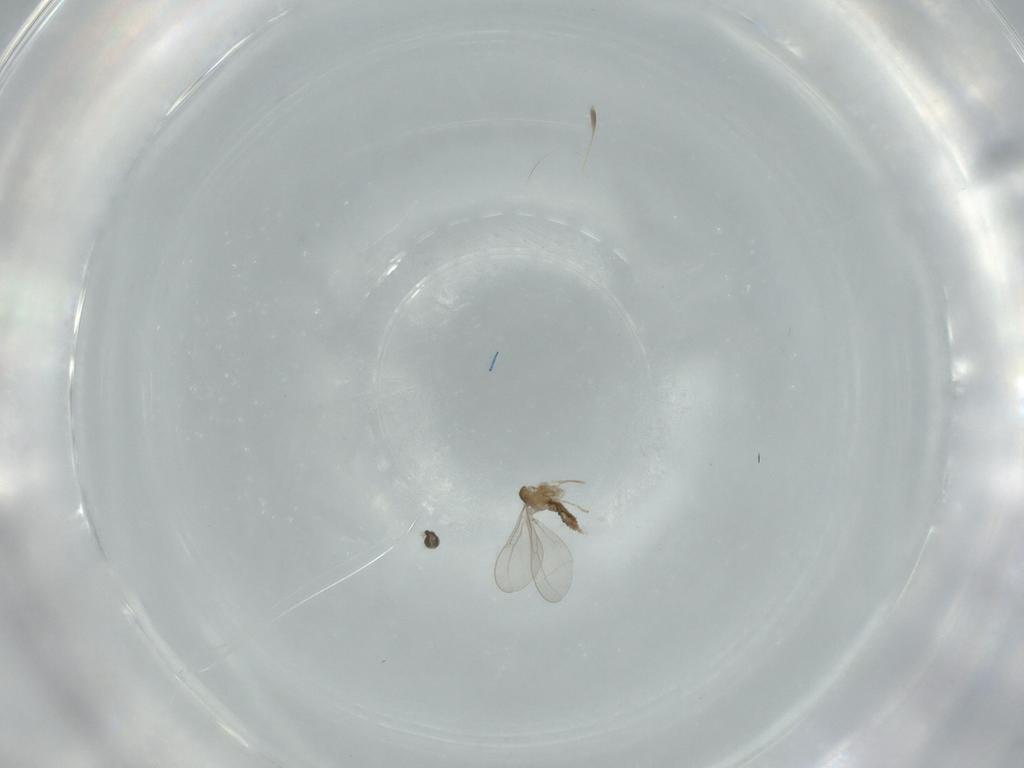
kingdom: Animalia
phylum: Arthropoda
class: Insecta
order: Diptera
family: Cecidomyiidae
